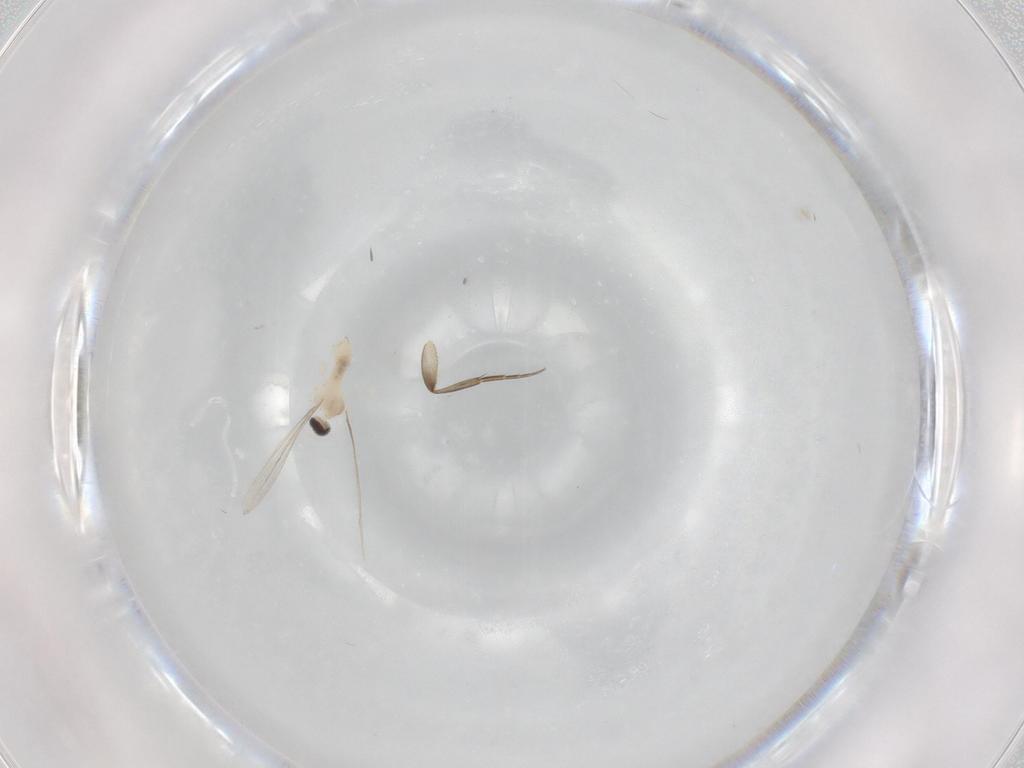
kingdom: Animalia
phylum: Arthropoda
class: Insecta
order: Diptera
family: Cecidomyiidae
